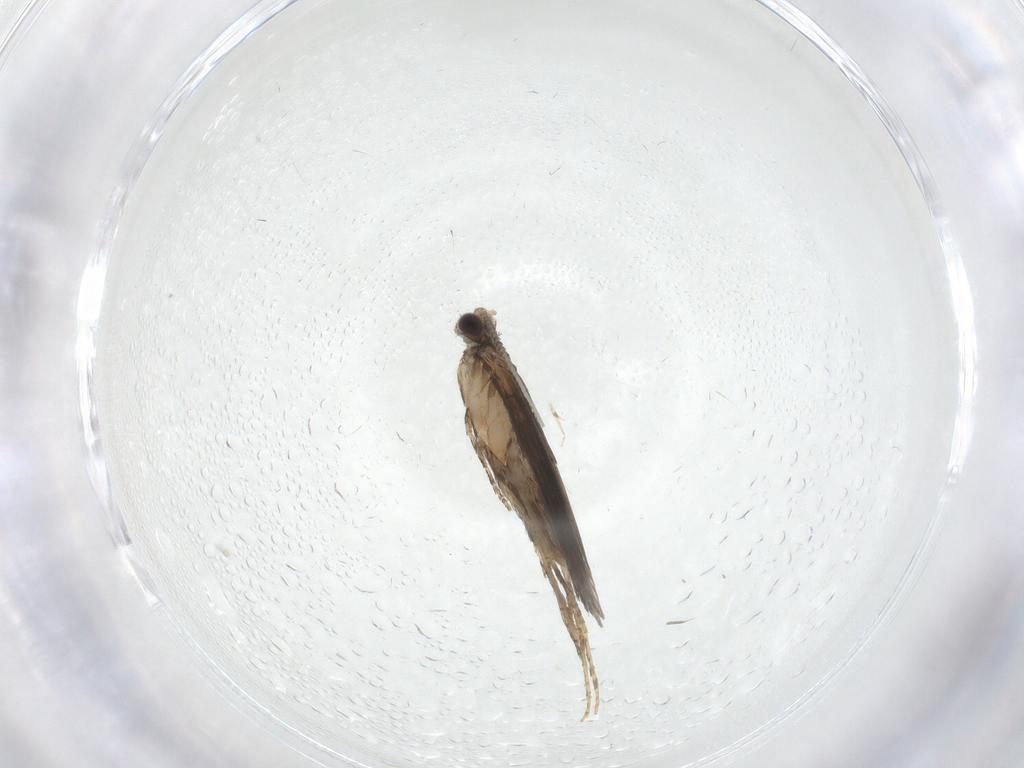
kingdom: Animalia
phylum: Arthropoda
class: Insecta
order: Trichoptera
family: Hydroptilidae
